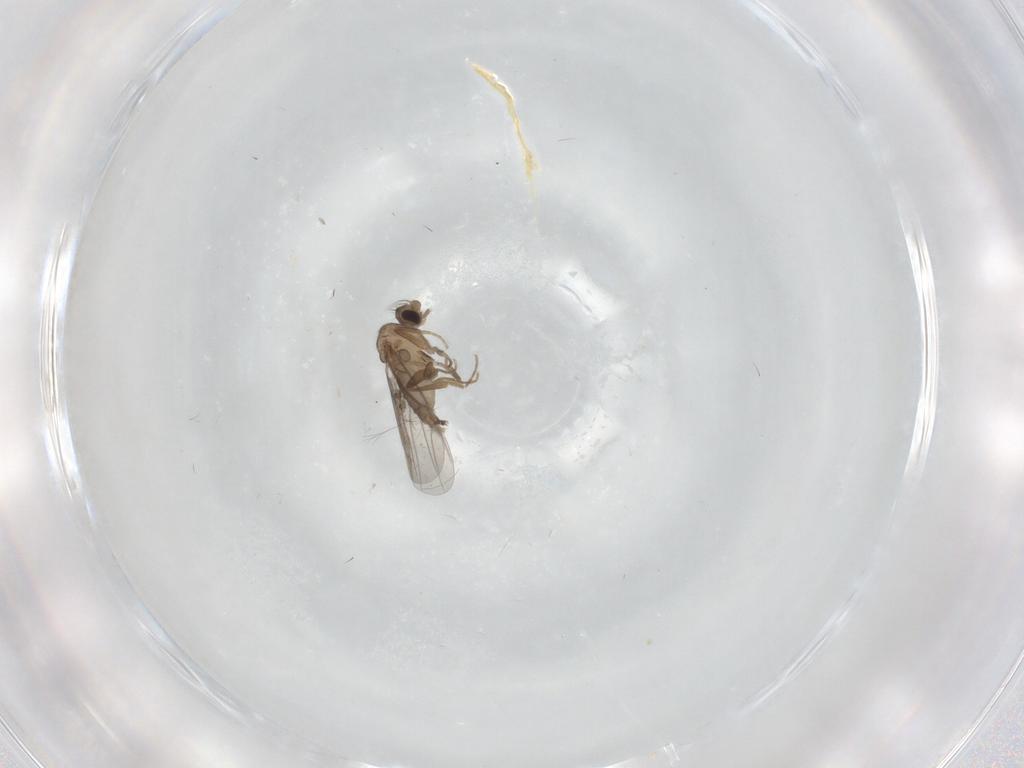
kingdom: Animalia
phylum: Arthropoda
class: Insecta
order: Diptera
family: Psychodidae
